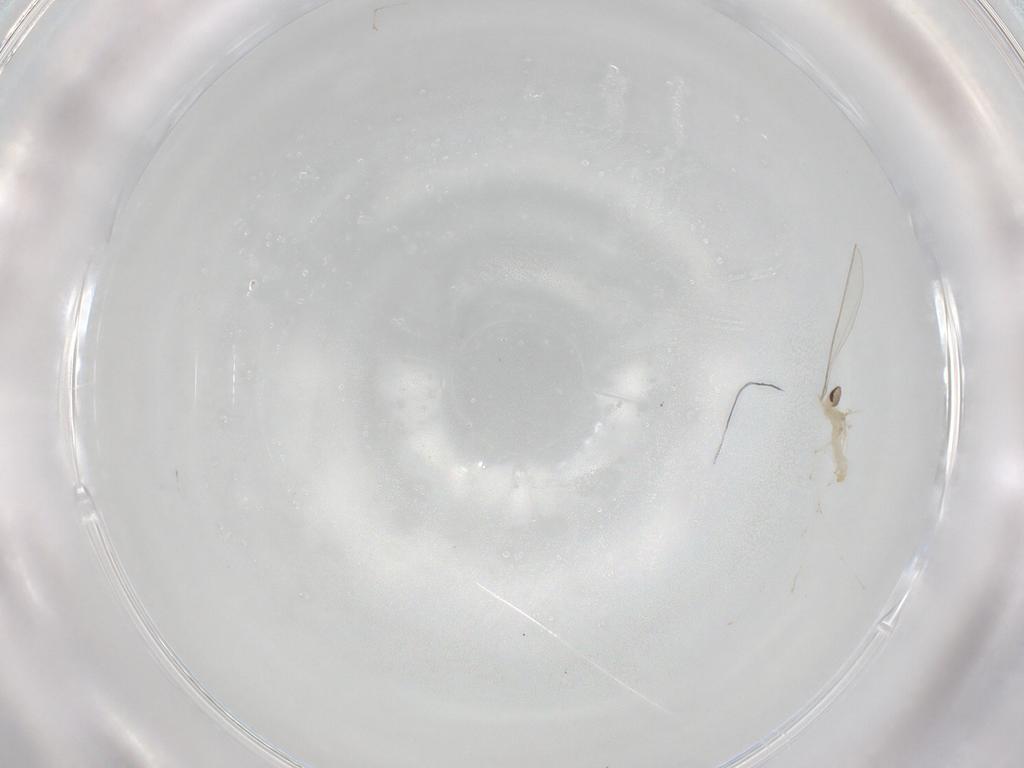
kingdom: Animalia
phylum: Arthropoda
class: Insecta
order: Diptera
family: Cecidomyiidae
